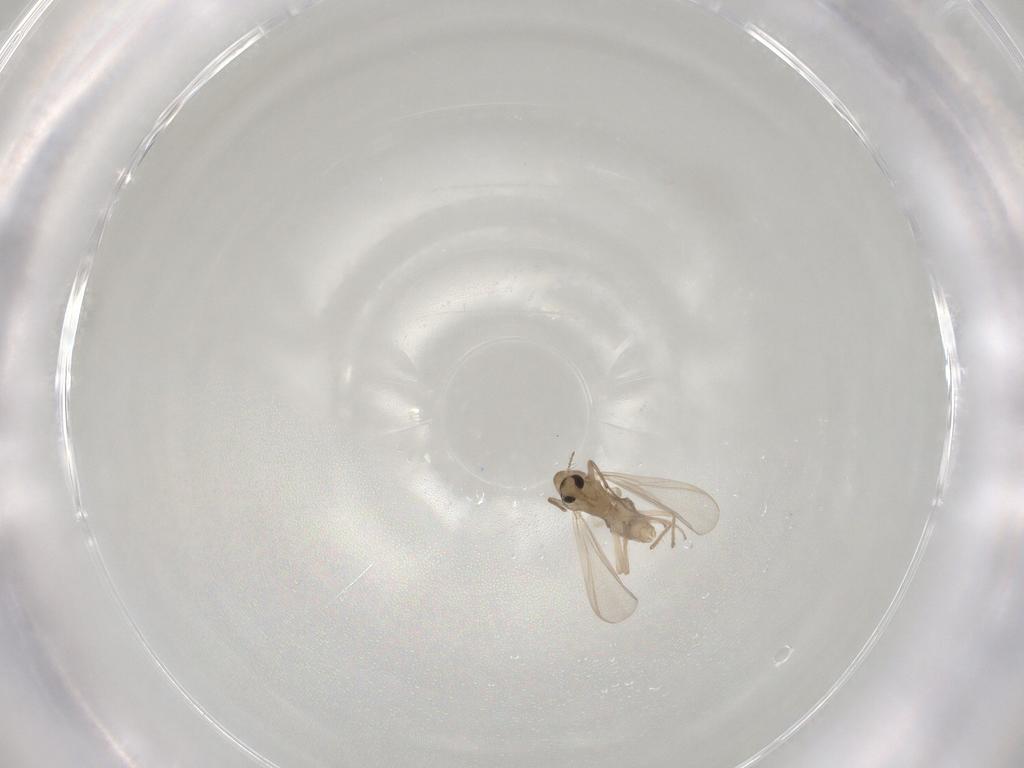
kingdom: Animalia
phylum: Arthropoda
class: Insecta
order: Diptera
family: Chironomidae
